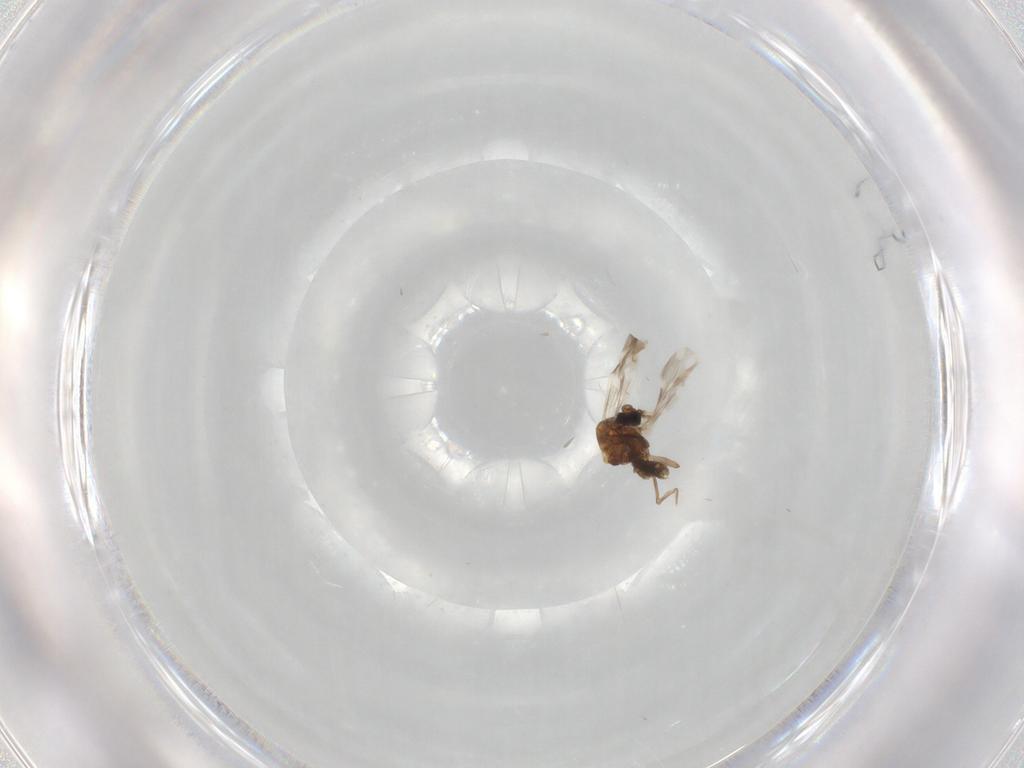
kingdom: Animalia
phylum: Arthropoda
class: Insecta
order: Diptera
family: Ceratopogonidae
